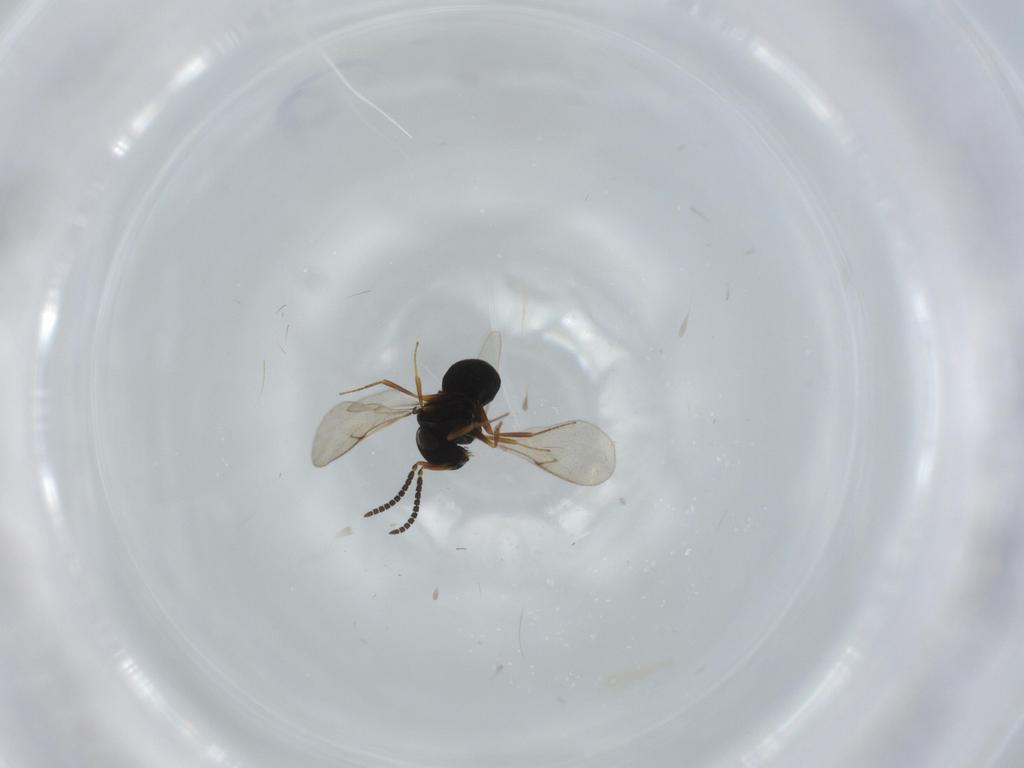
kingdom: Animalia
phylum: Arthropoda
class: Insecta
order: Hymenoptera
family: Scelionidae
